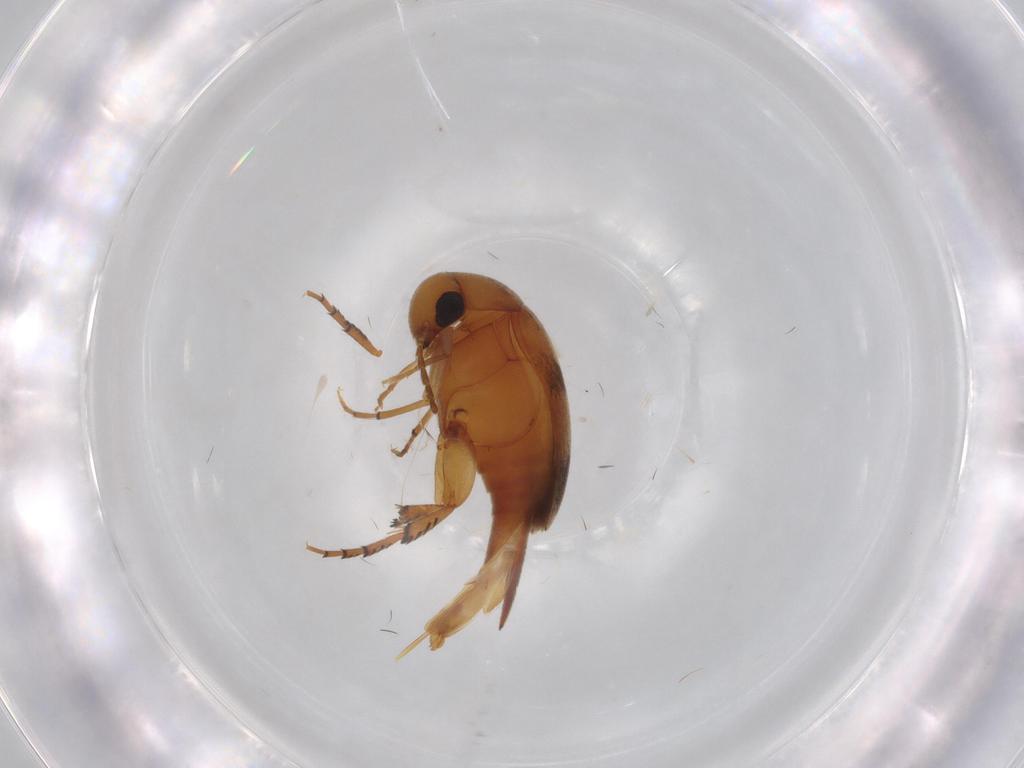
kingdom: Animalia
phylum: Arthropoda
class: Insecta
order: Coleoptera
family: Mordellidae
